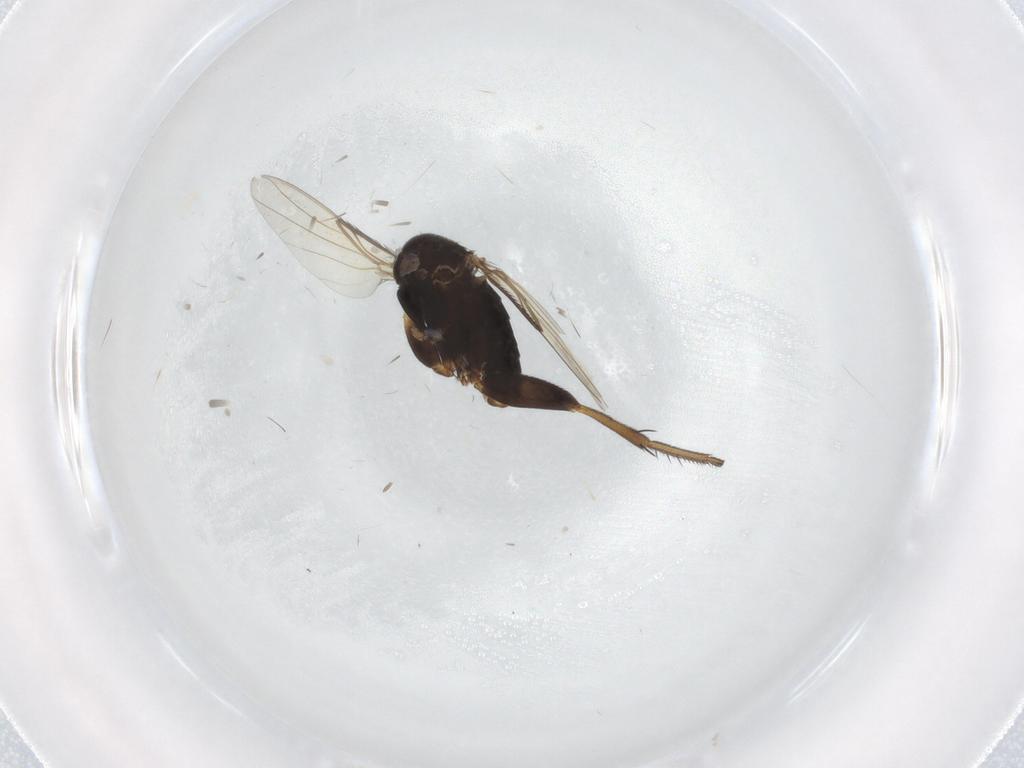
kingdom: Animalia
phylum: Arthropoda
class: Insecta
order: Diptera
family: Phoridae
